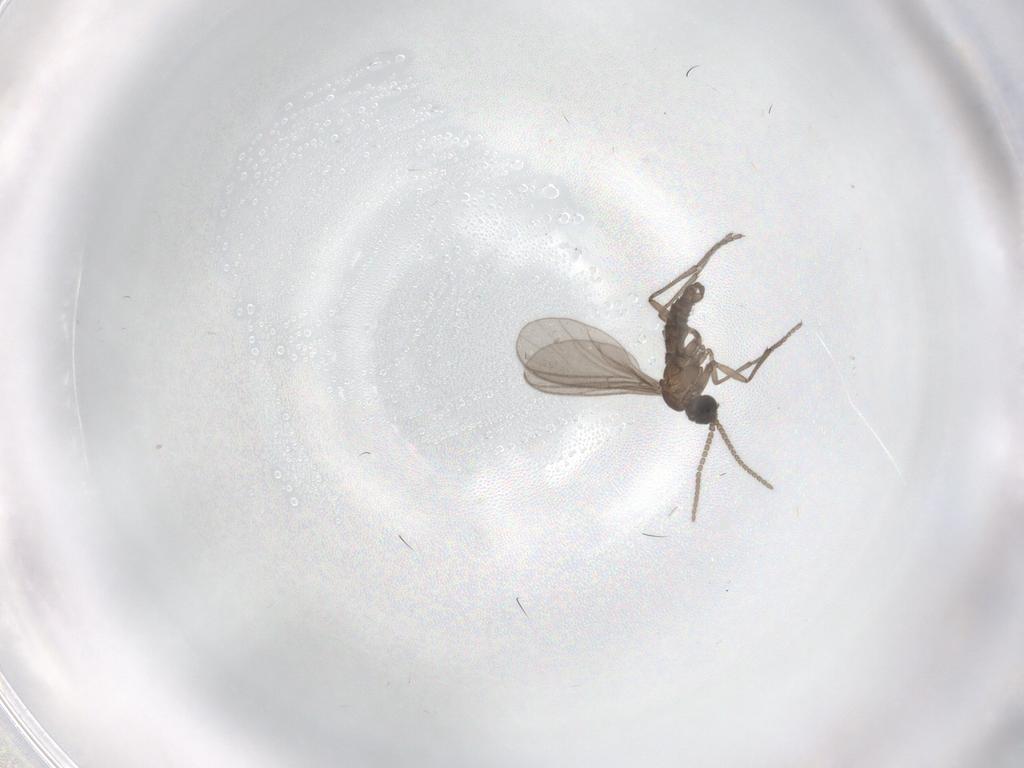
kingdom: Animalia
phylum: Arthropoda
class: Insecta
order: Diptera
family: Sciaridae
